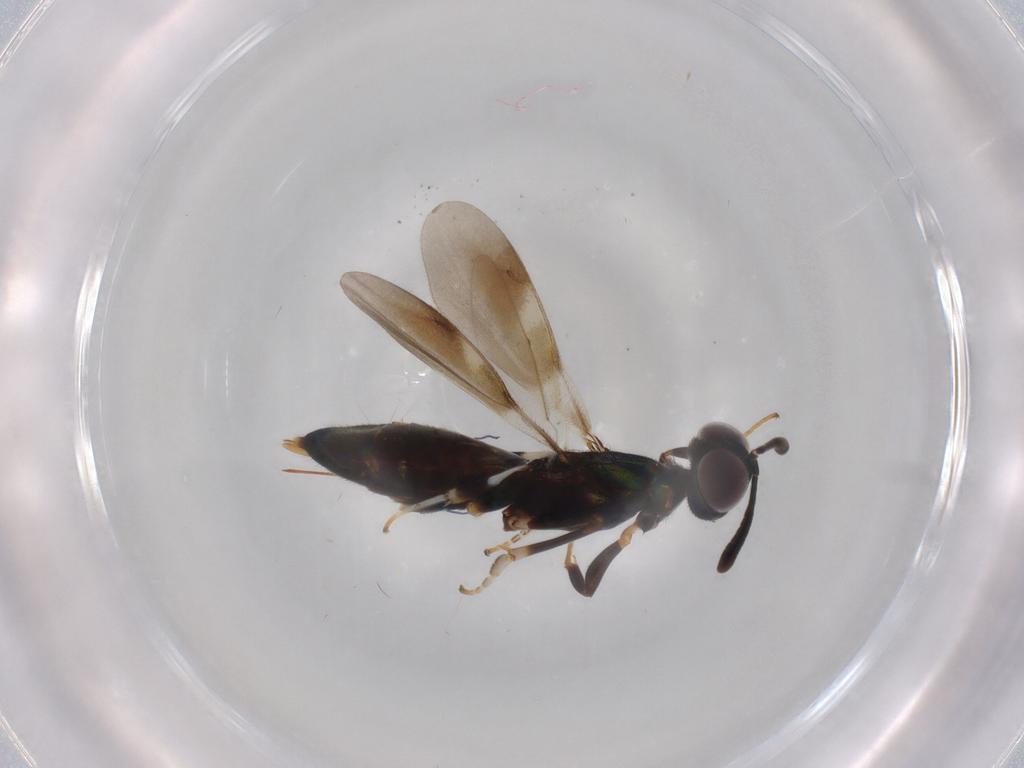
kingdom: Animalia
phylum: Arthropoda
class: Insecta
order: Hymenoptera
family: Eupelmidae
